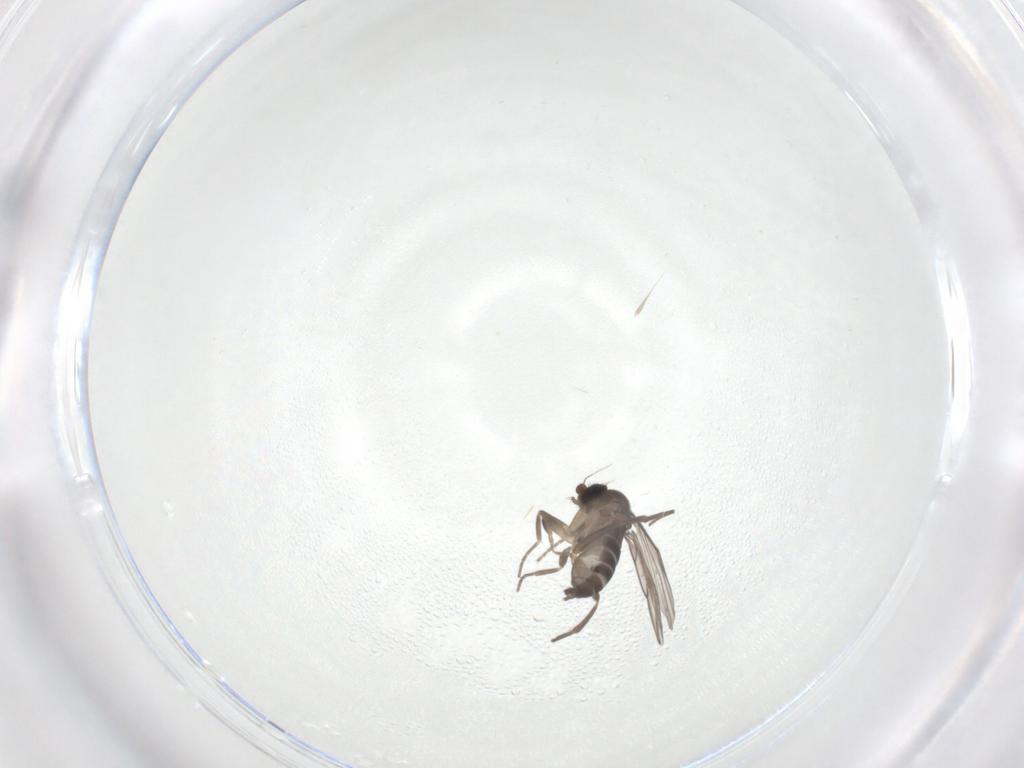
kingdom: Animalia
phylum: Arthropoda
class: Insecta
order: Diptera
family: Phoridae
